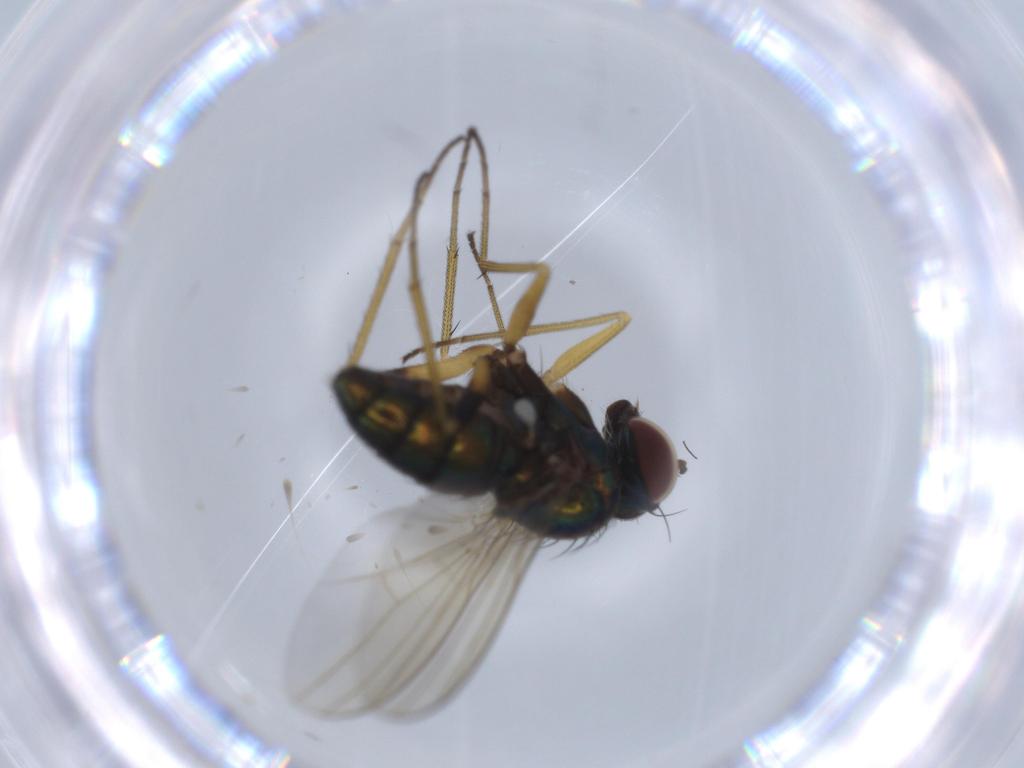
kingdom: Animalia
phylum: Arthropoda
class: Insecta
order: Diptera
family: Dolichopodidae
